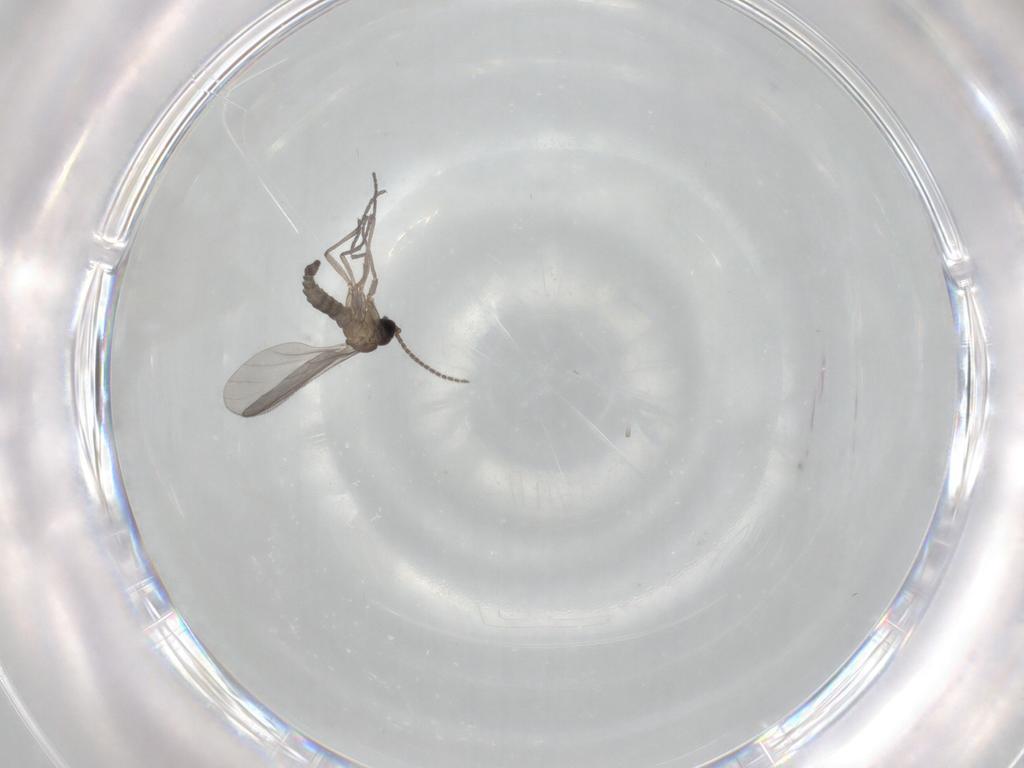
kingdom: Animalia
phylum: Arthropoda
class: Insecta
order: Diptera
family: Sciaridae
